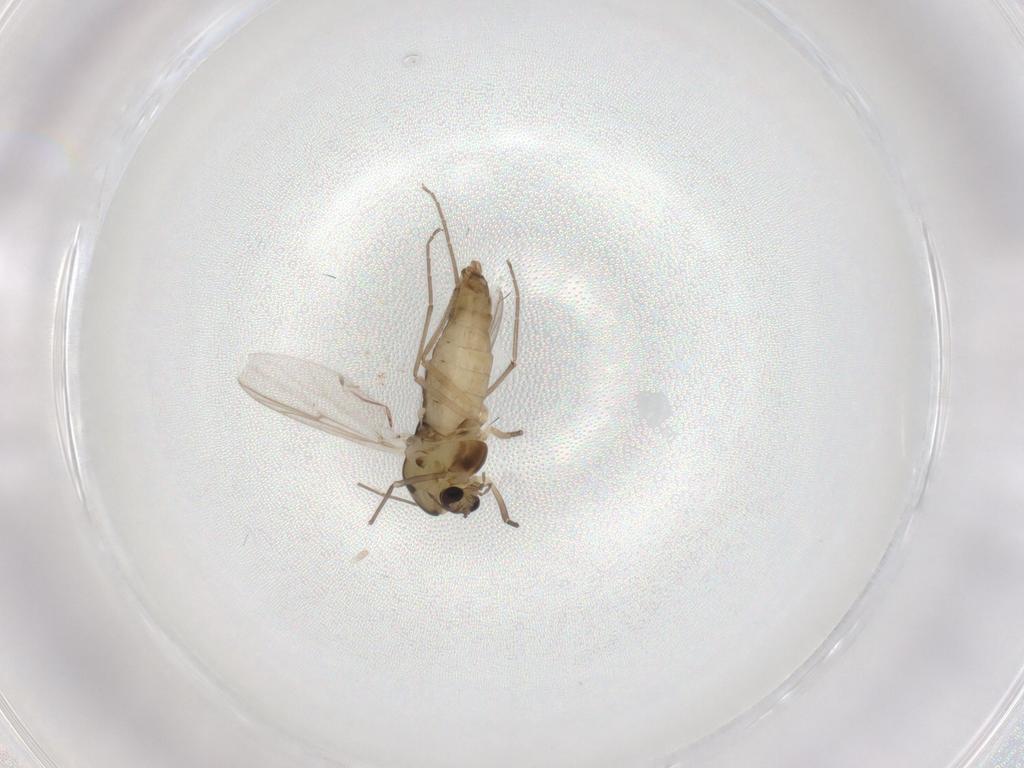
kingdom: Animalia
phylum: Arthropoda
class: Insecta
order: Diptera
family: Chironomidae
